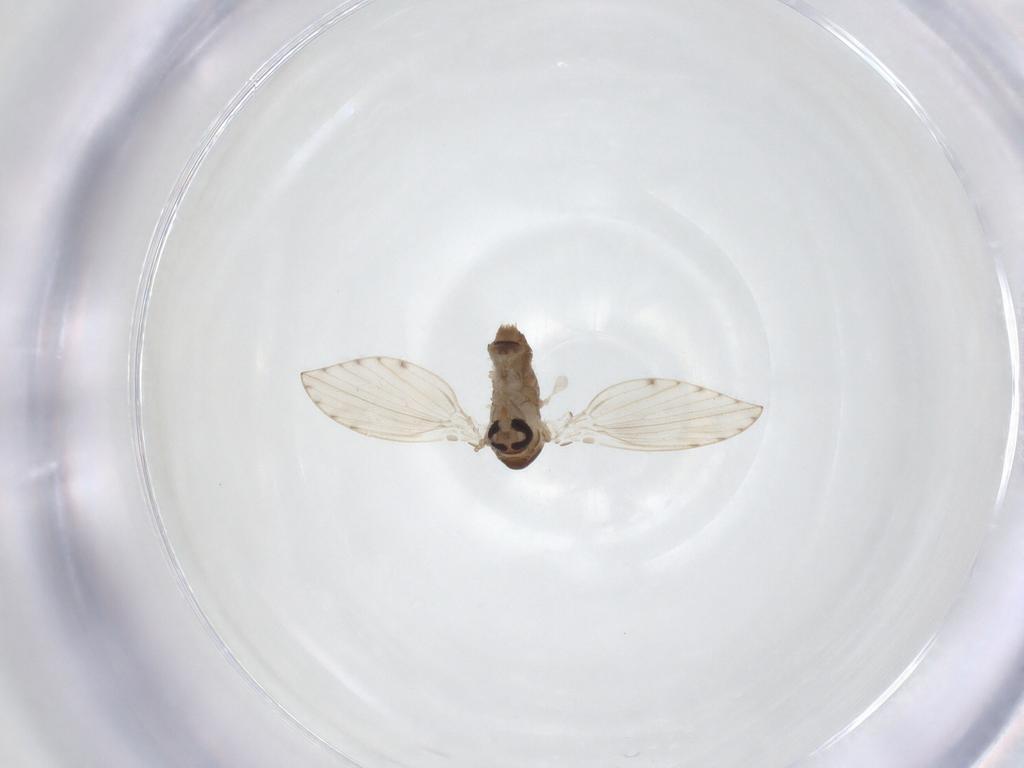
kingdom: Animalia
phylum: Arthropoda
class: Insecta
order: Diptera
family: Psychodidae
